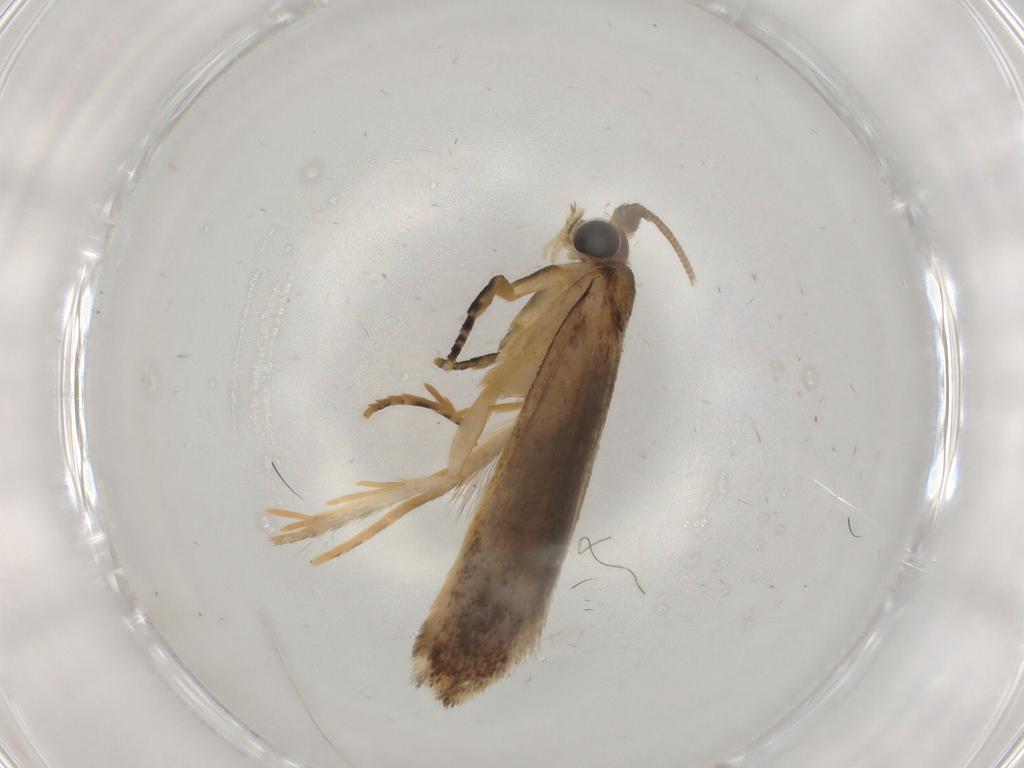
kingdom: Animalia
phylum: Arthropoda
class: Insecta
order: Lepidoptera
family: Nepticulidae
